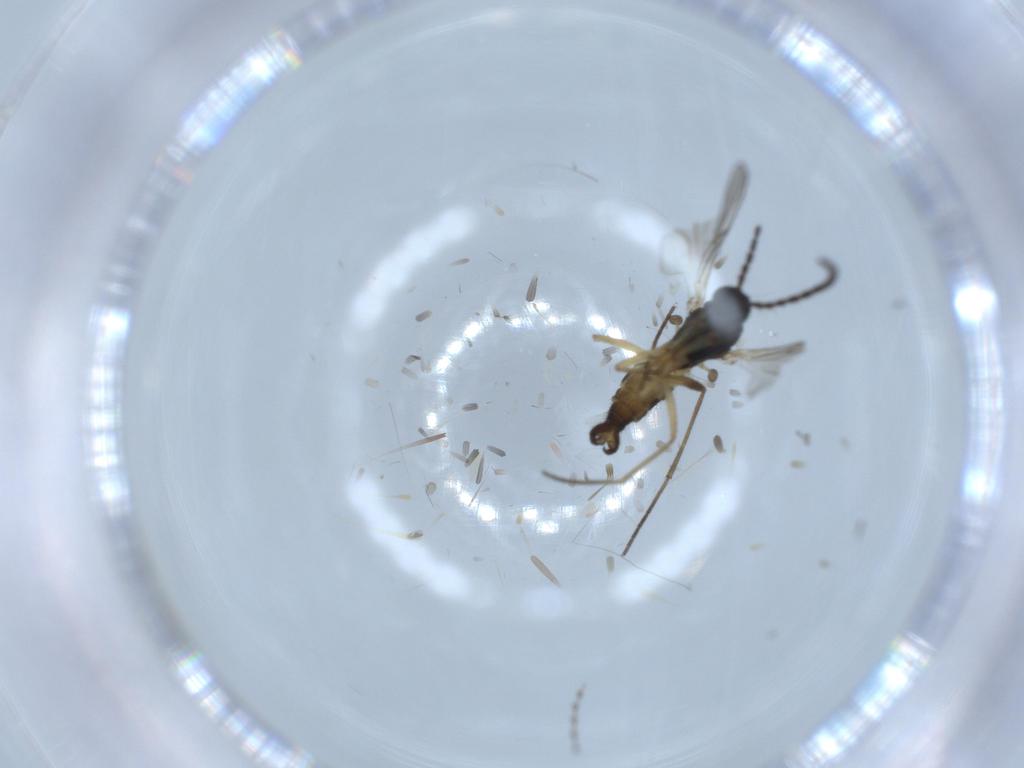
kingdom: Animalia
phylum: Arthropoda
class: Insecta
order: Diptera
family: Sciaridae
